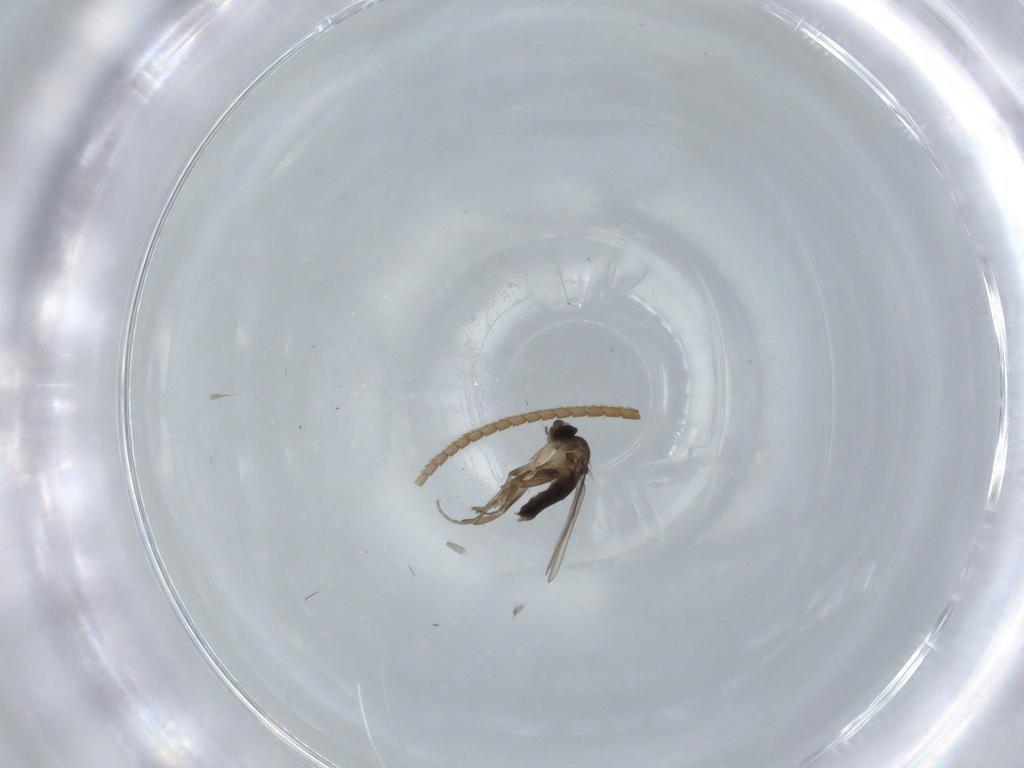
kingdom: Animalia
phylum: Arthropoda
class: Insecta
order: Diptera
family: Phoridae
